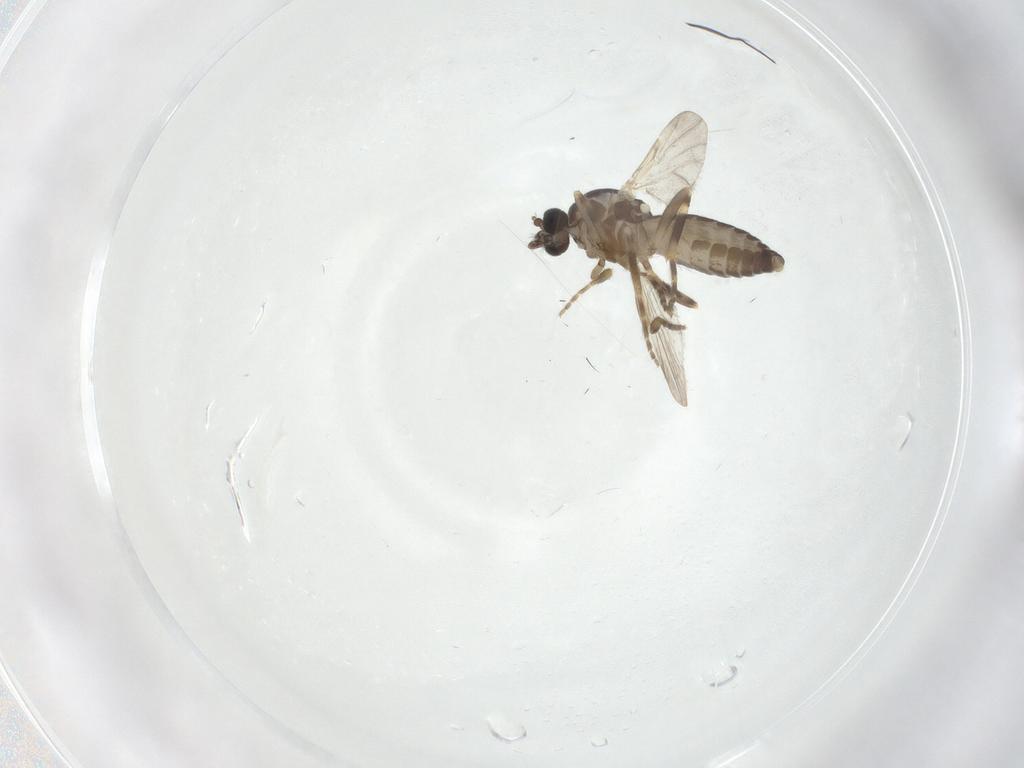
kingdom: Animalia
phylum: Arthropoda
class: Insecta
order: Diptera
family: Ceratopogonidae
